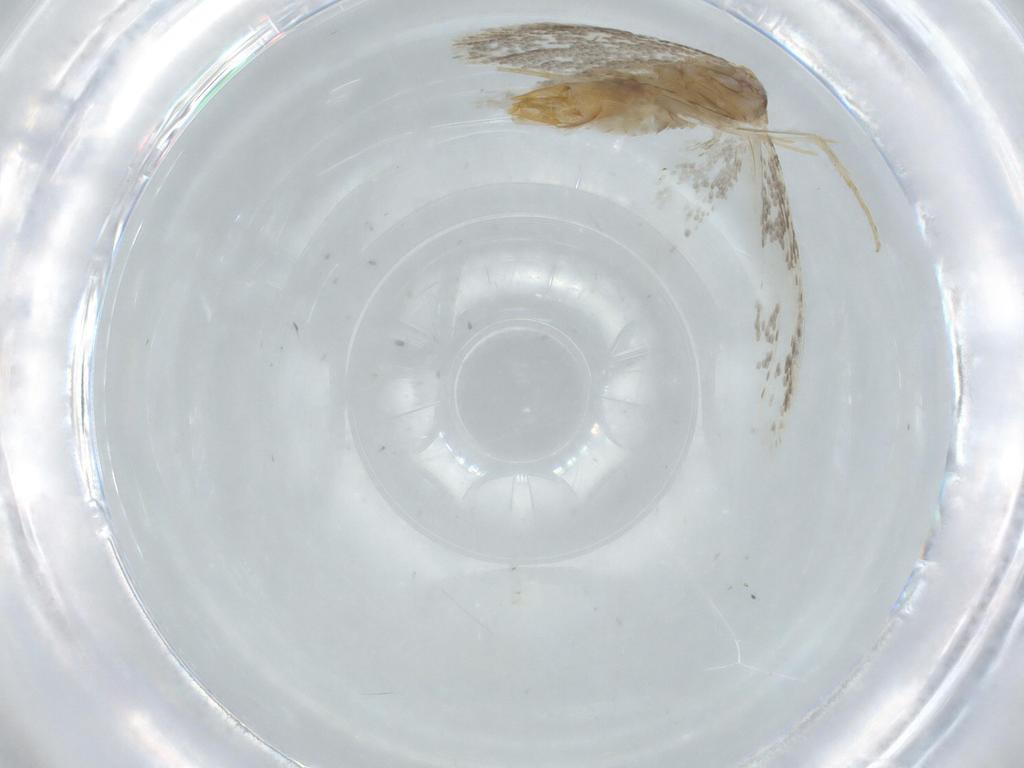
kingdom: Animalia
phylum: Arthropoda
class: Insecta
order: Lepidoptera
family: Tineidae
